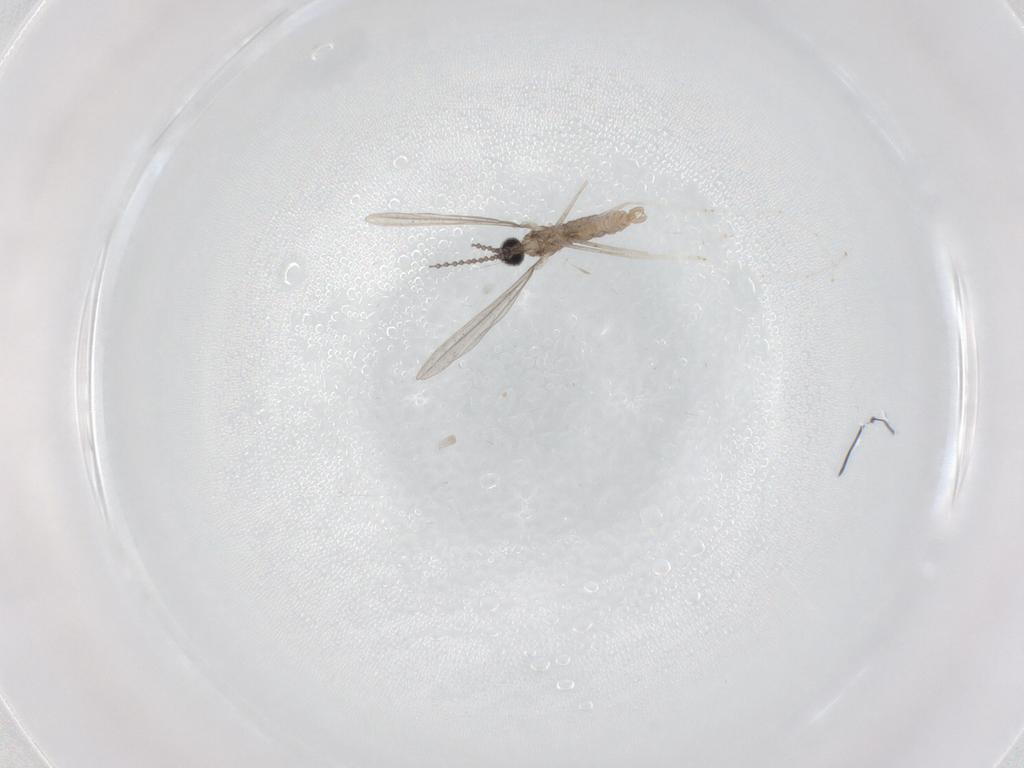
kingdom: Animalia
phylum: Arthropoda
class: Insecta
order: Diptera
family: Cecidomyiidae
